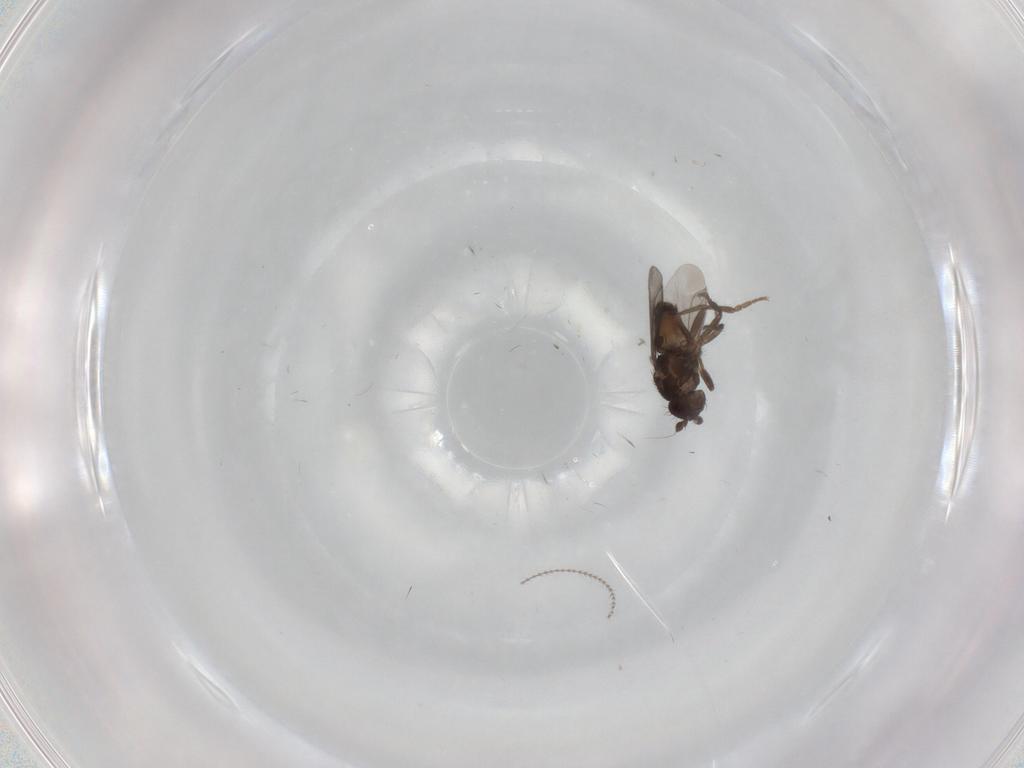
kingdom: Animalia
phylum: Arthropoda
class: Insecta
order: Diptera
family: Sphaeroceridae
